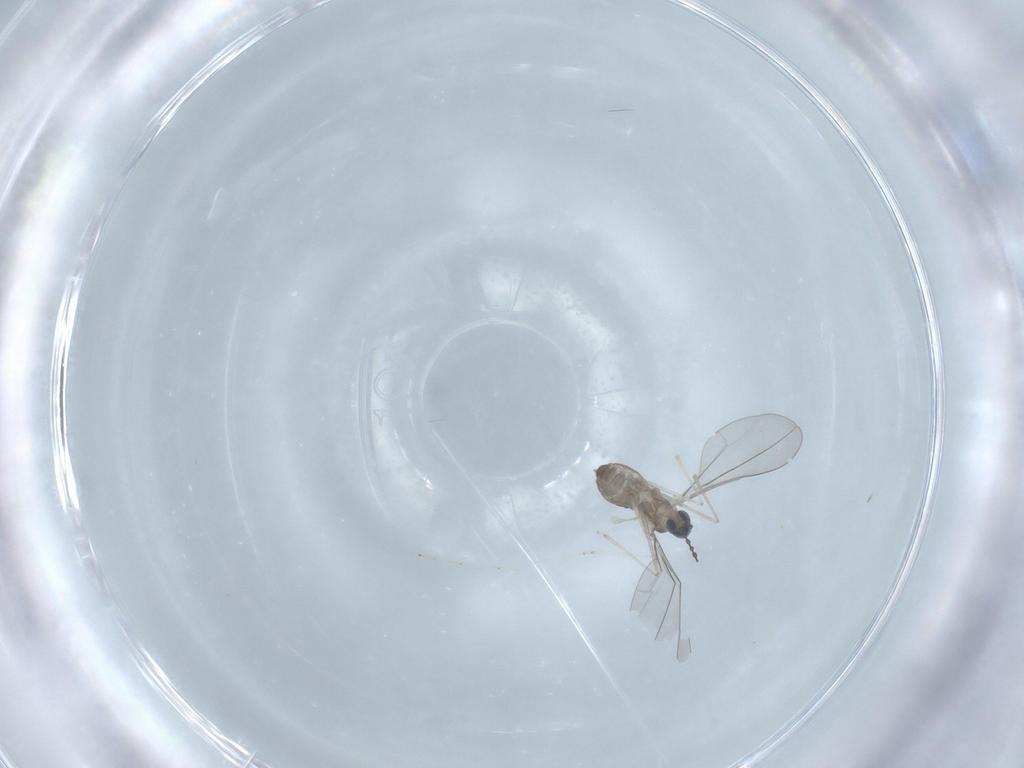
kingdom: Animalia
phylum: Arthropoda
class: Insecta
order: Diptera
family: Cecidomyiidae
